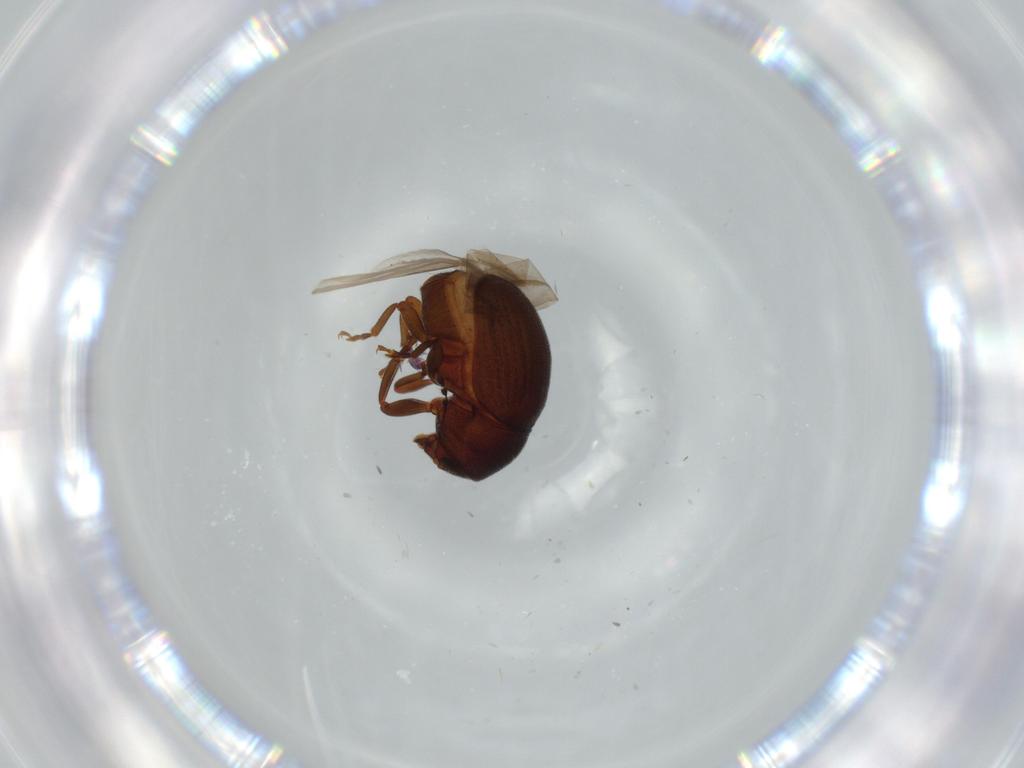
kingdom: Animalia
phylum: Arthropoda
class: Insecta
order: Coleoptera
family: Anthribidae
